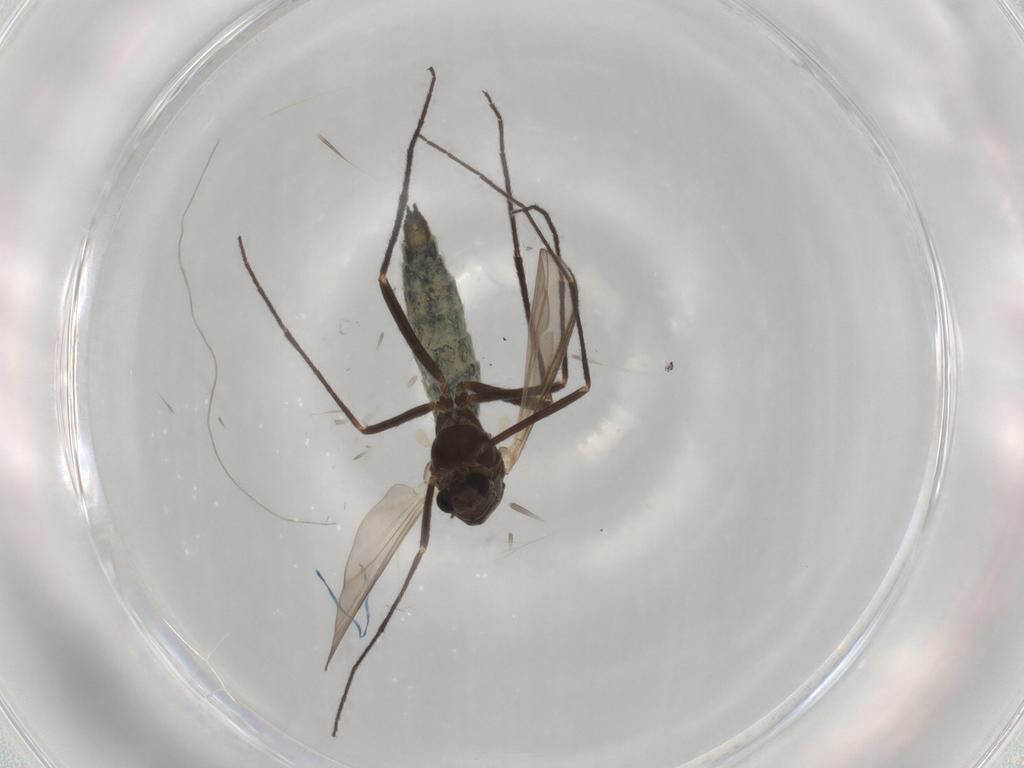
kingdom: Animalia
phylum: Arthropoda
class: Insecta
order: Diptera
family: Chironomidae
